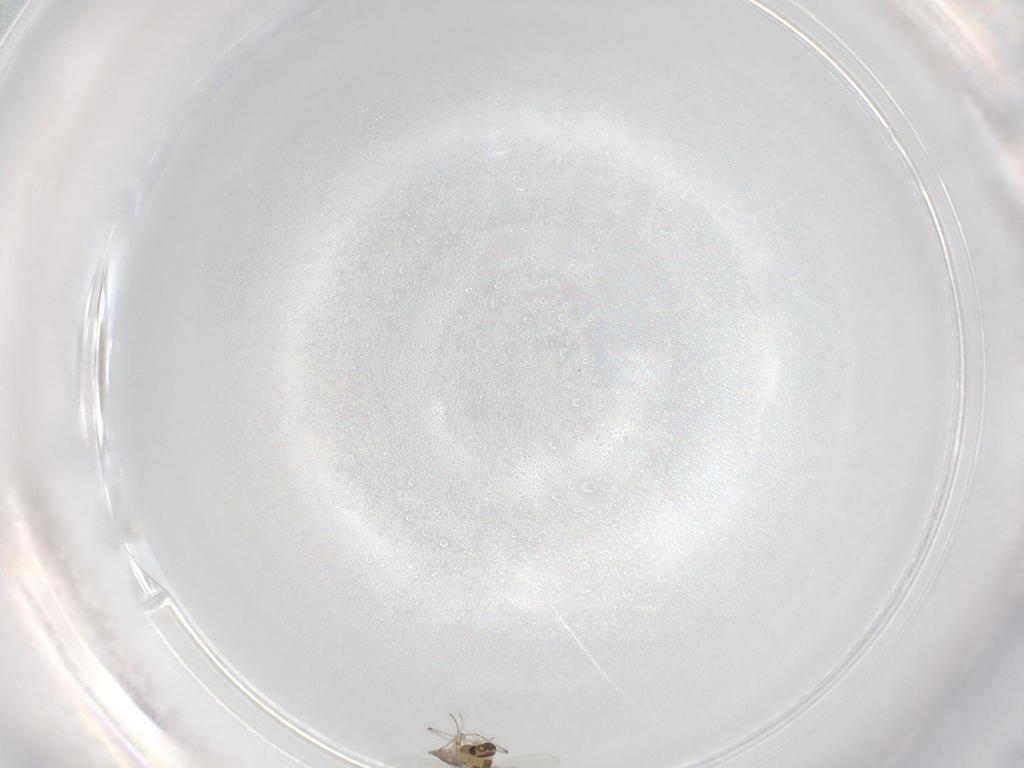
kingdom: Animalia
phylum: Arthropoda
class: Insecta
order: Diptera
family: Chironomidae
